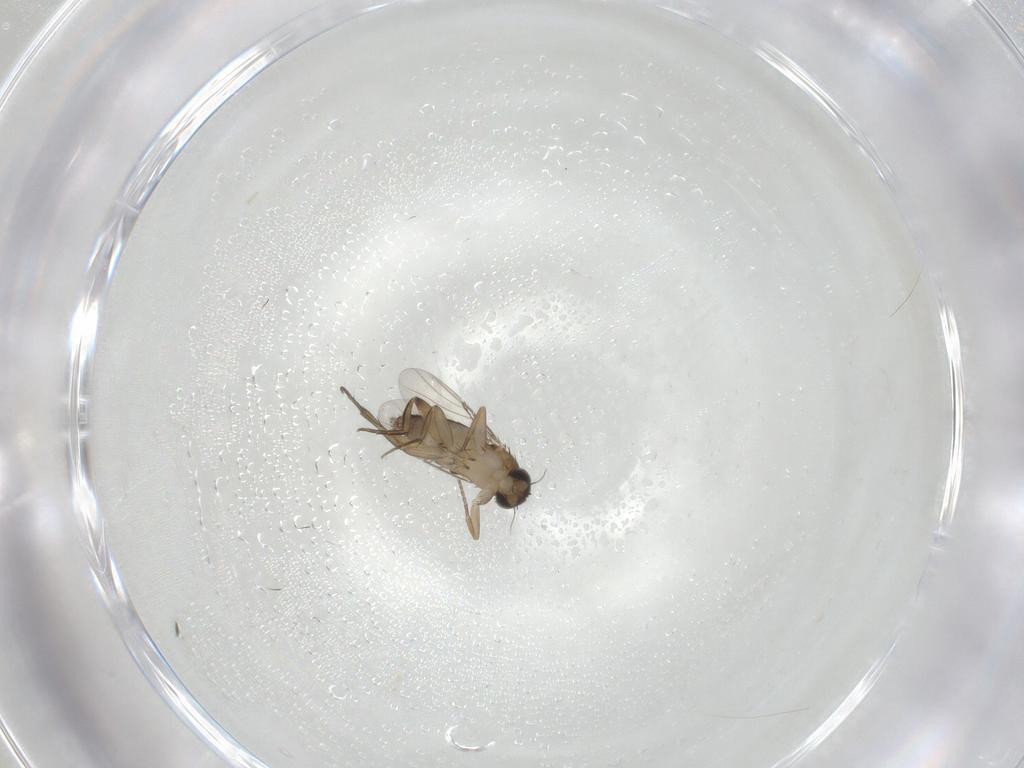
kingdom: Animalia
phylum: Arthropoda
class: Insecta
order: Diptera
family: Phoridae
